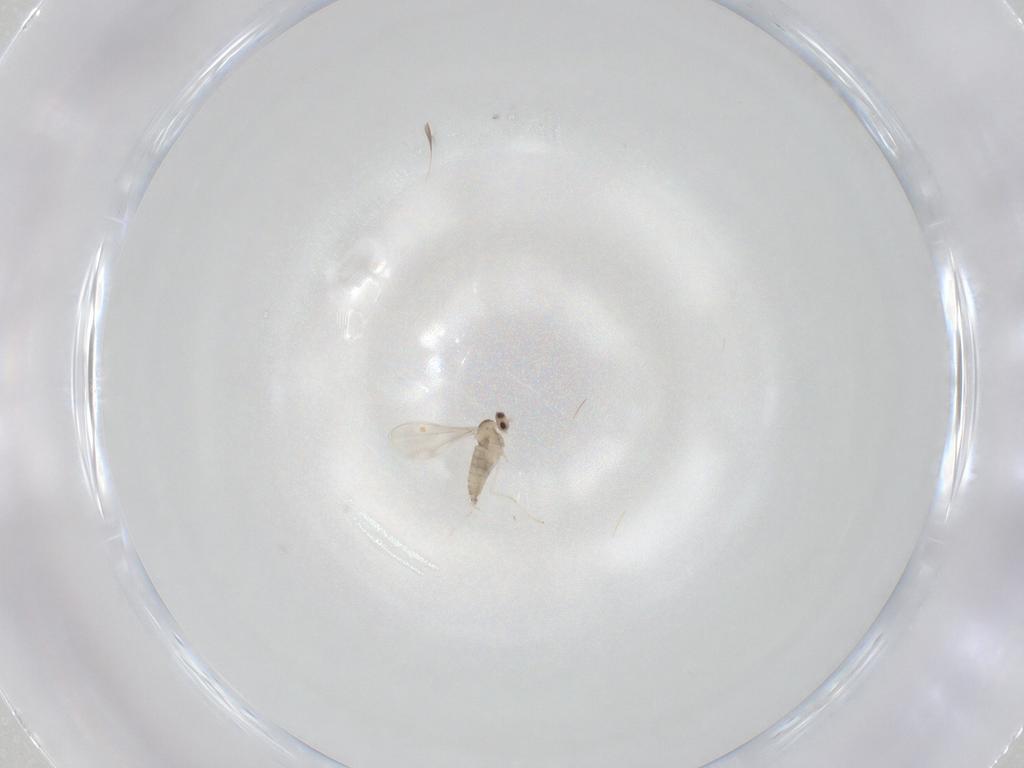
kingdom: Animalia
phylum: Arthropoda
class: Insecta
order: Diptera
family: Cecidomyiidae
